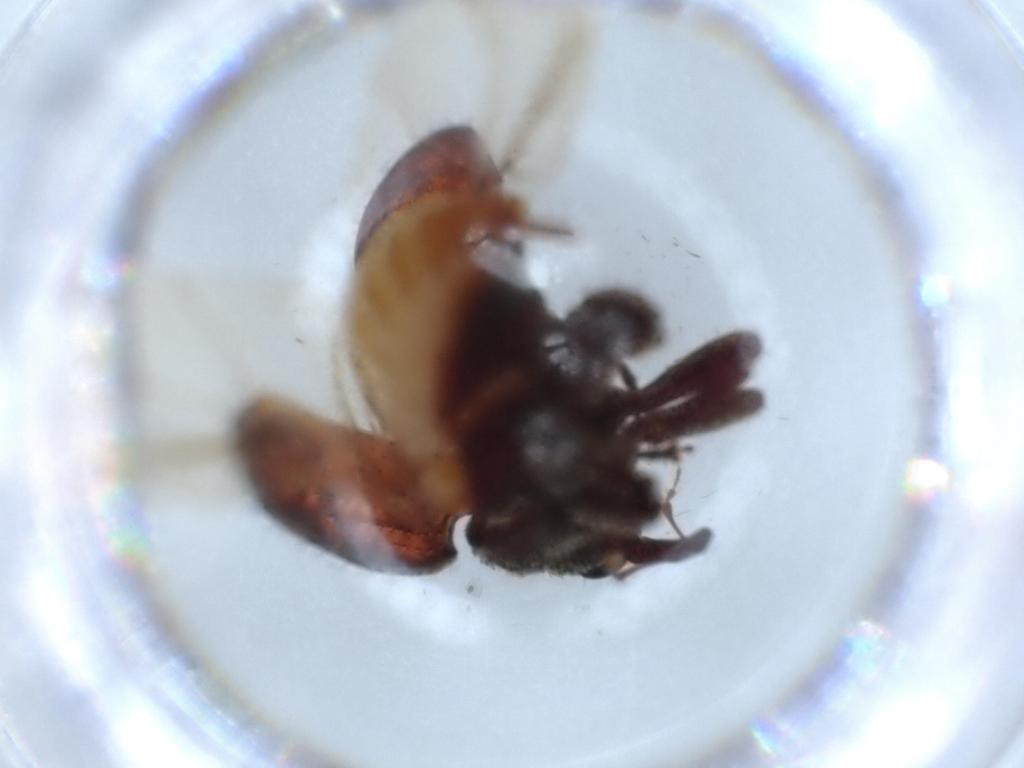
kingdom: Animalia
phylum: Arthropoda
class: Insecta
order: Coleoptera
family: Curculionidae
